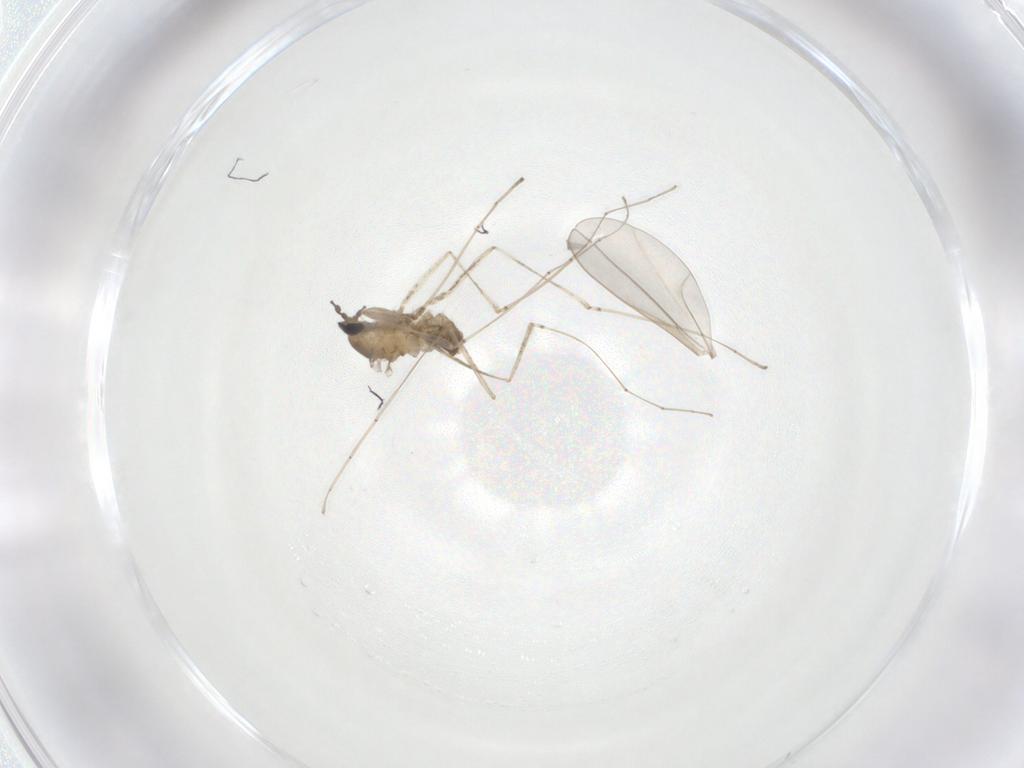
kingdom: Animalia
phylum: Arthropoda
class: Insecta
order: Diptera
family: Cecidomyiidae
